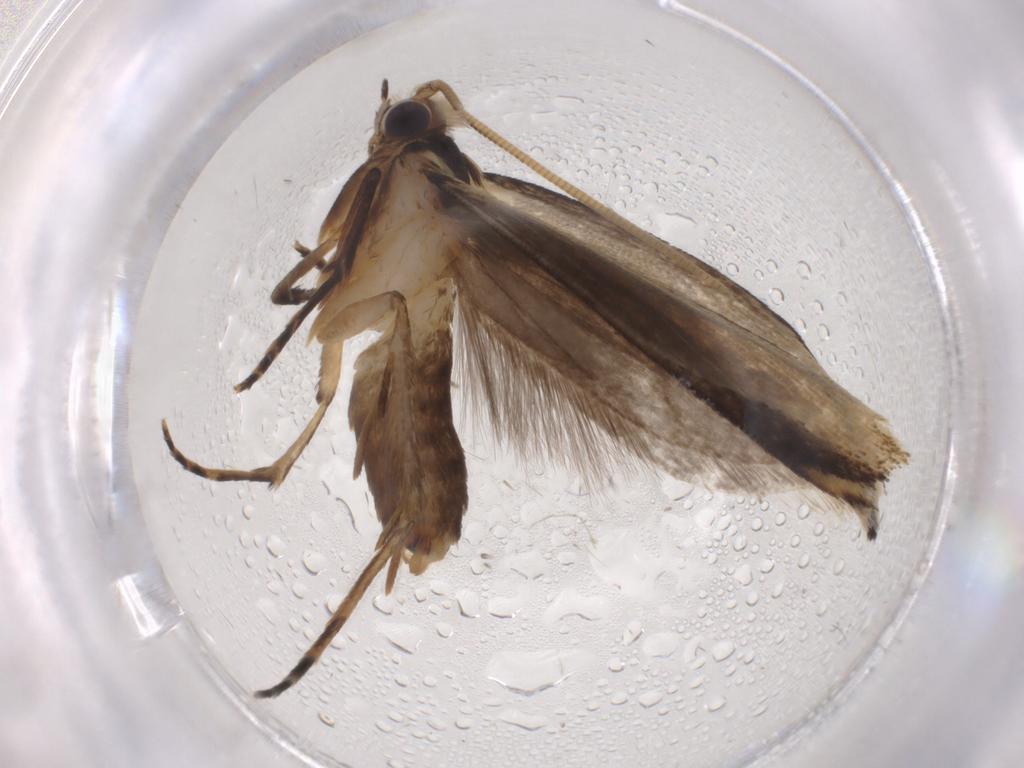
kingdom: Animalia
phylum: Arthropoda
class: Insecta
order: Lepidoptera
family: Tineidae
